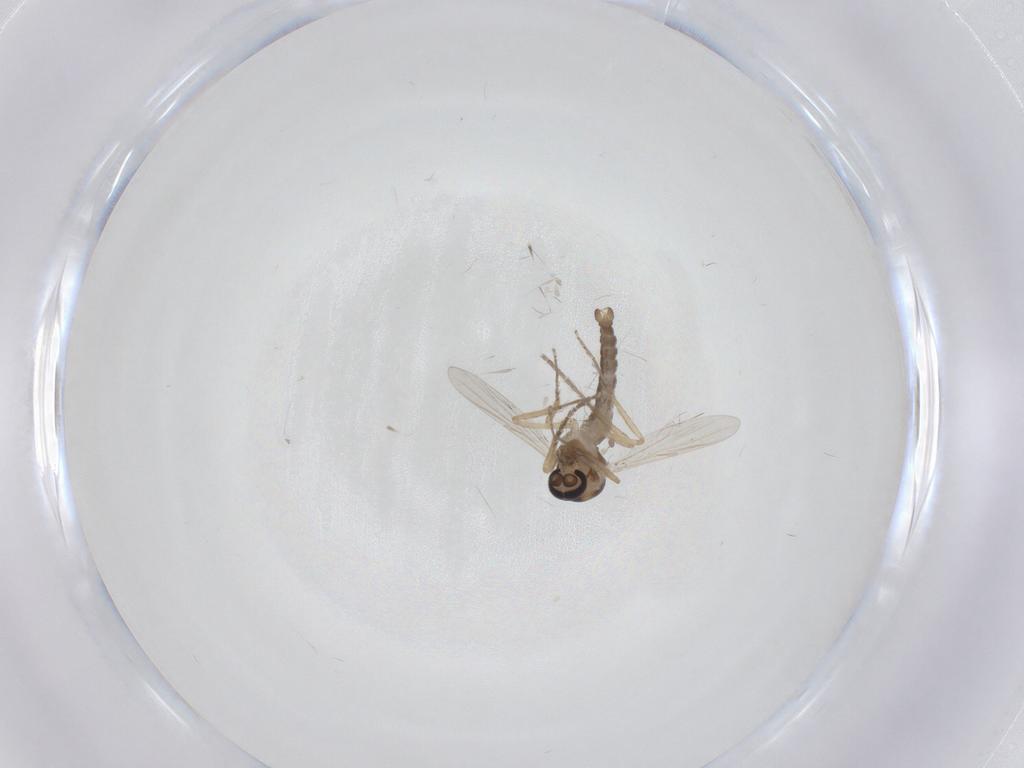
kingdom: Animalia
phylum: Arthropoda
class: Insecta
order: Diptera
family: Ceratopogonidae
